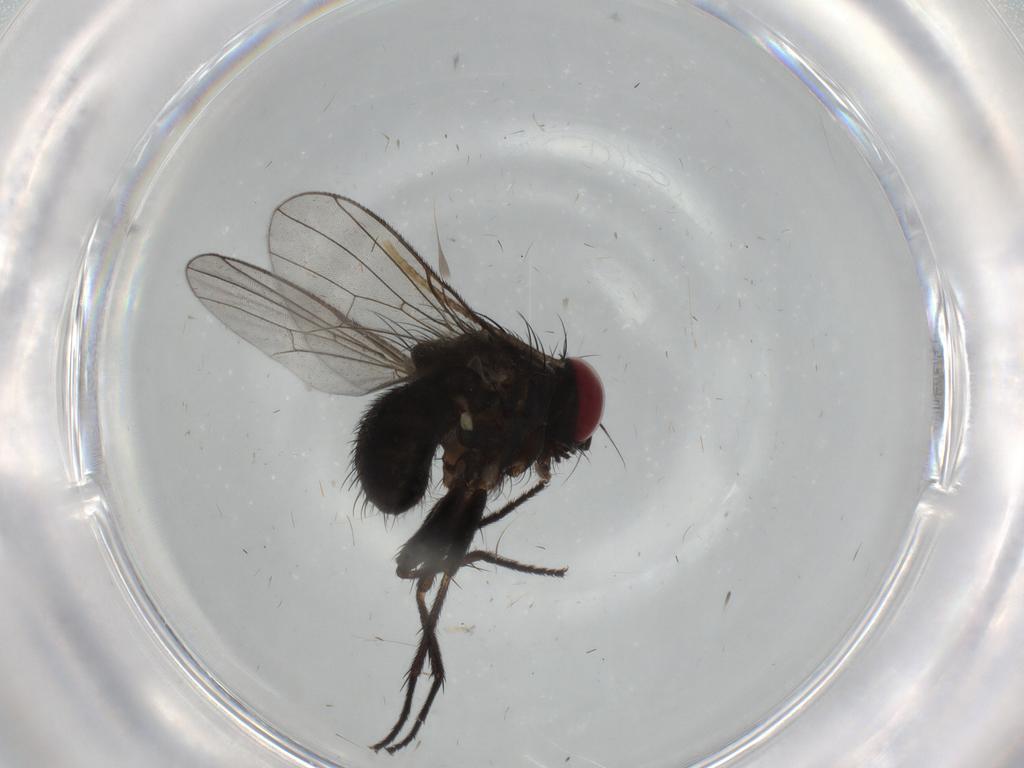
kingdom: Animalia
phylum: Arthropoda
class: Insecta
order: Diptera
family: Muscidae
